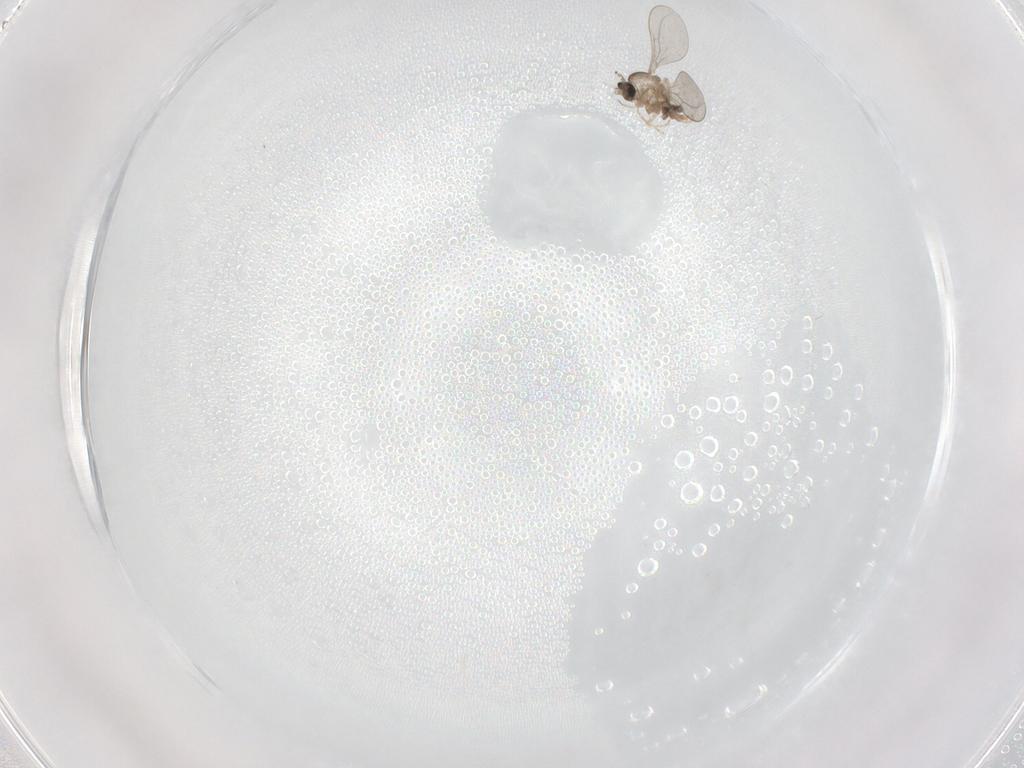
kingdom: Animalia
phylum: Arthropoda
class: Insecta
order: Diptera
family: Cecidomyiidae
